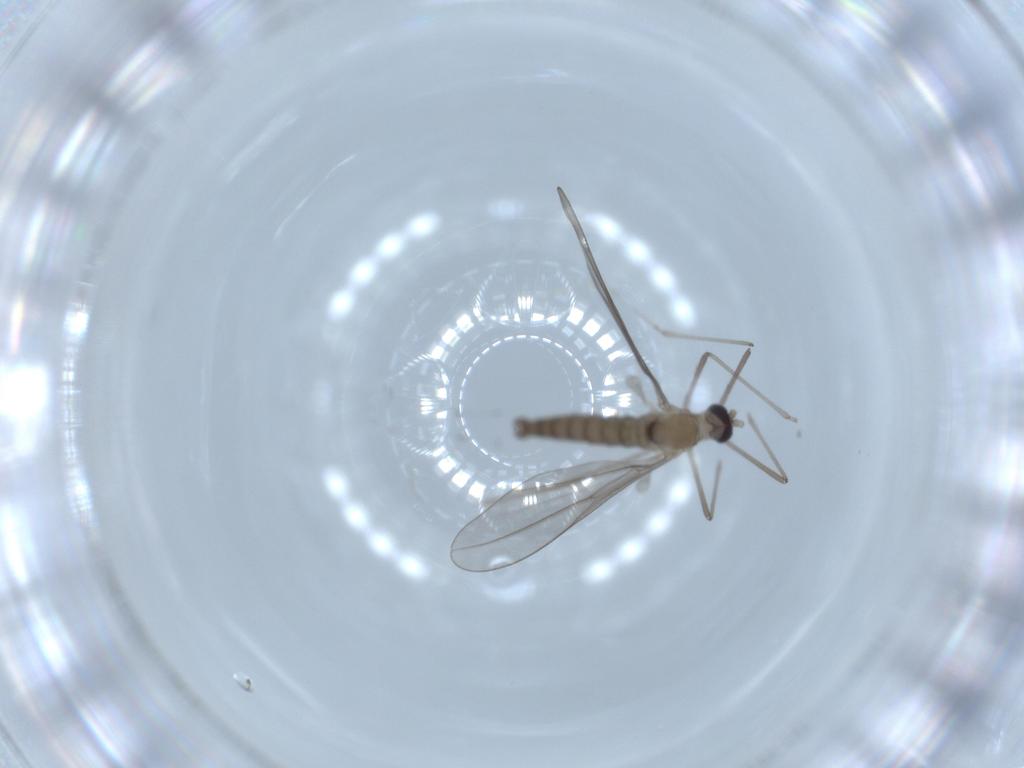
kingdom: Animalia
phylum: Arthropoda
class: Insecta
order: Diptera
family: Cecidomyiidae
